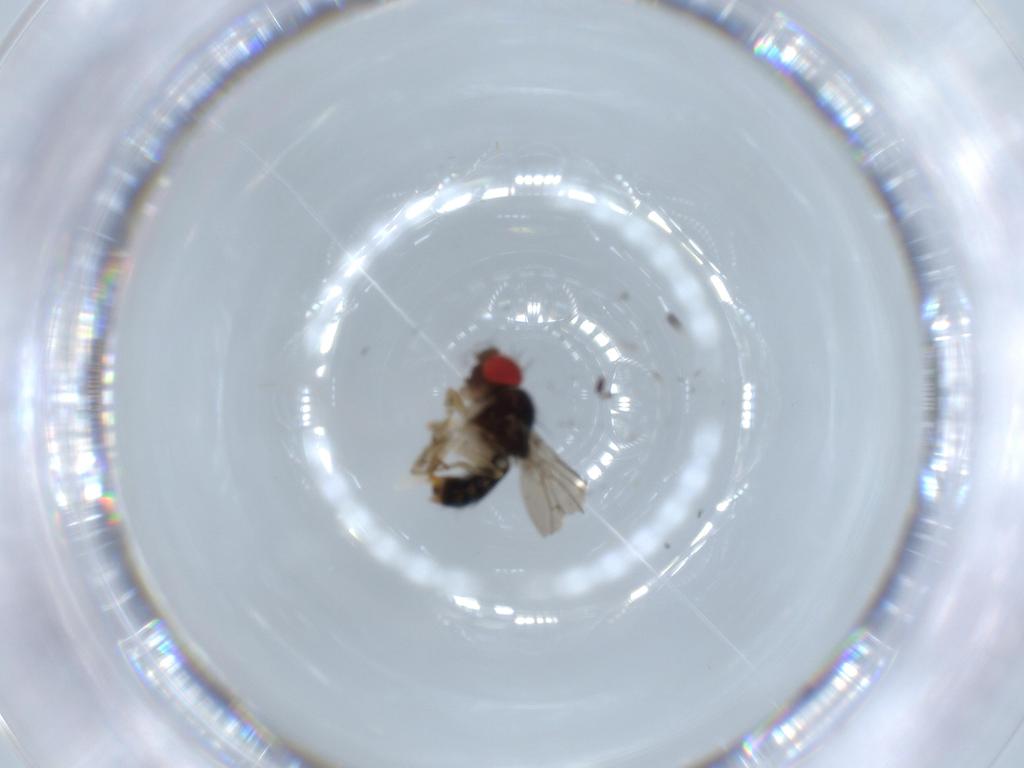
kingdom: Animalia
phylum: Arthropoda
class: Insecta
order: Diptera
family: Drosophilidae
